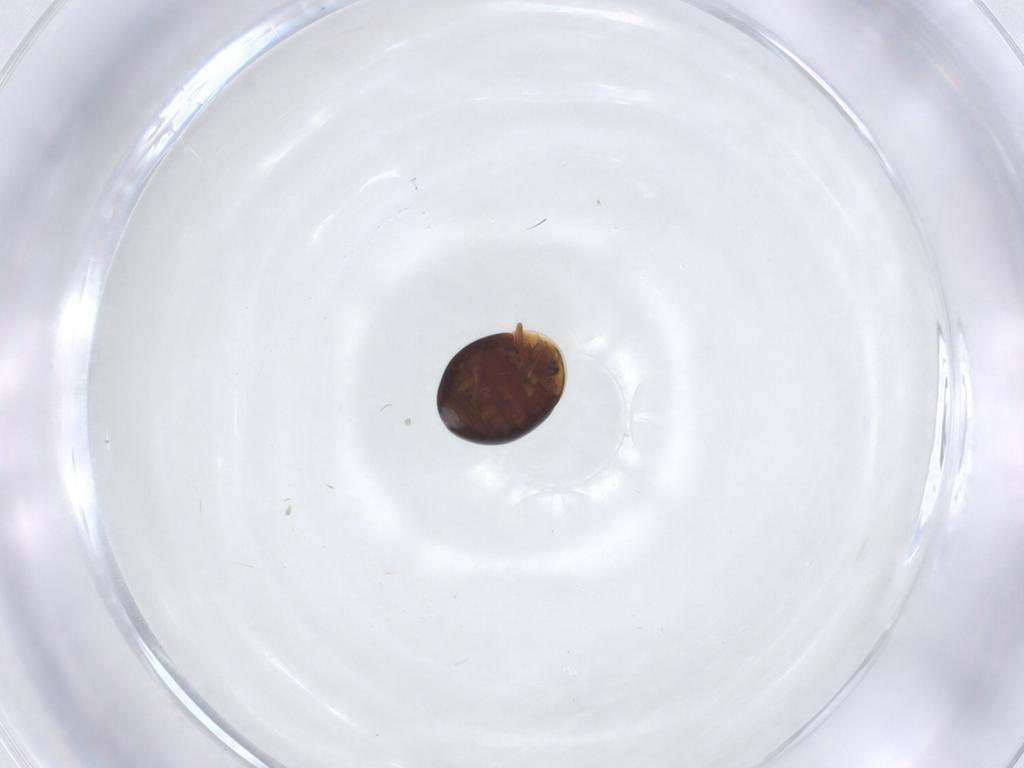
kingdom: Animalia
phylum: Arthropoda
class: Insecta
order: Coleoptera
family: Corylophidae
